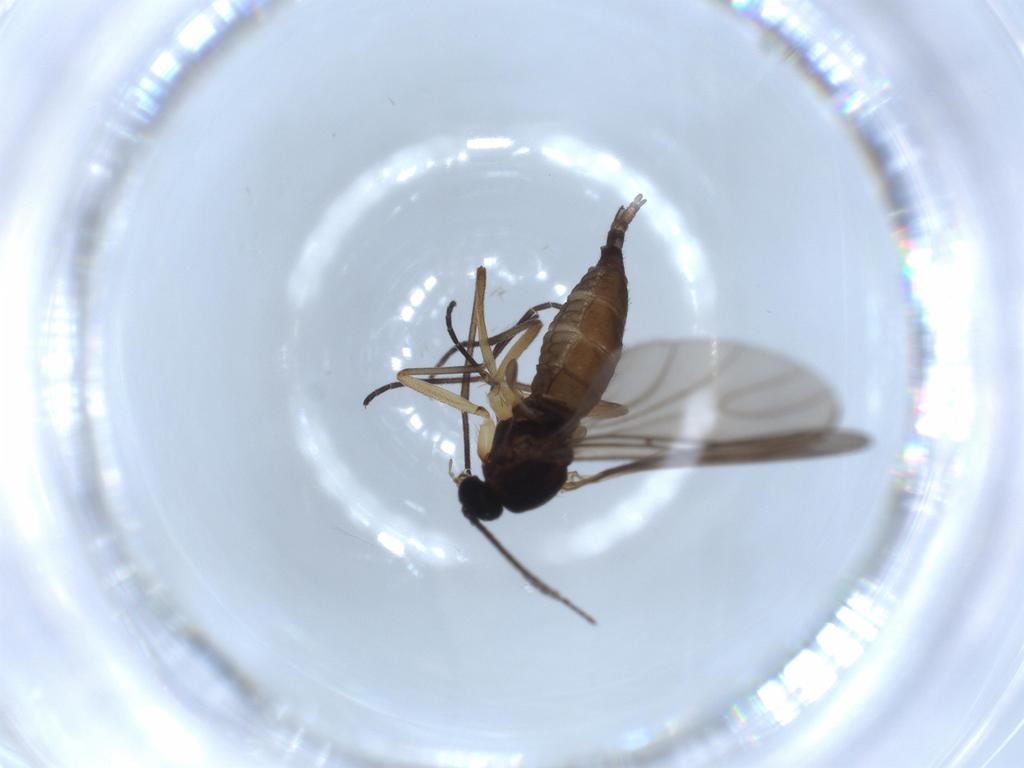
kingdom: Animalia
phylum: Arthropoda
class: Insecta
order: Diptera
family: Sciaridae
